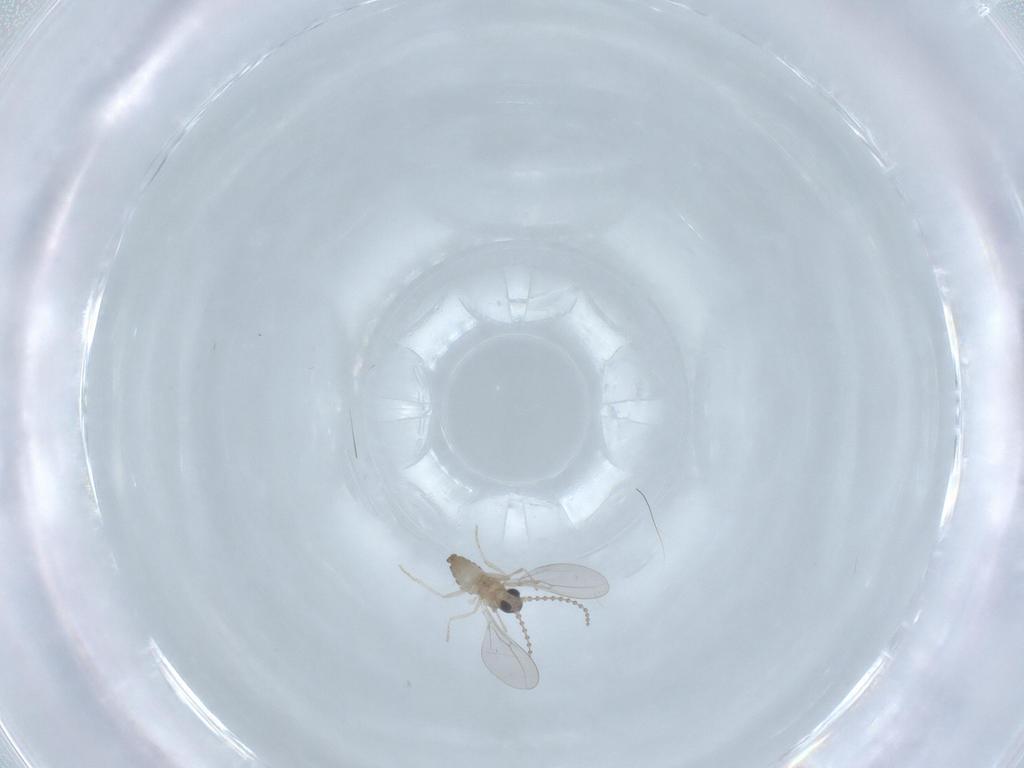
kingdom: Animalia
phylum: Arthropoda
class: Insecta
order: Diptera
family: Cecidomyiidae
